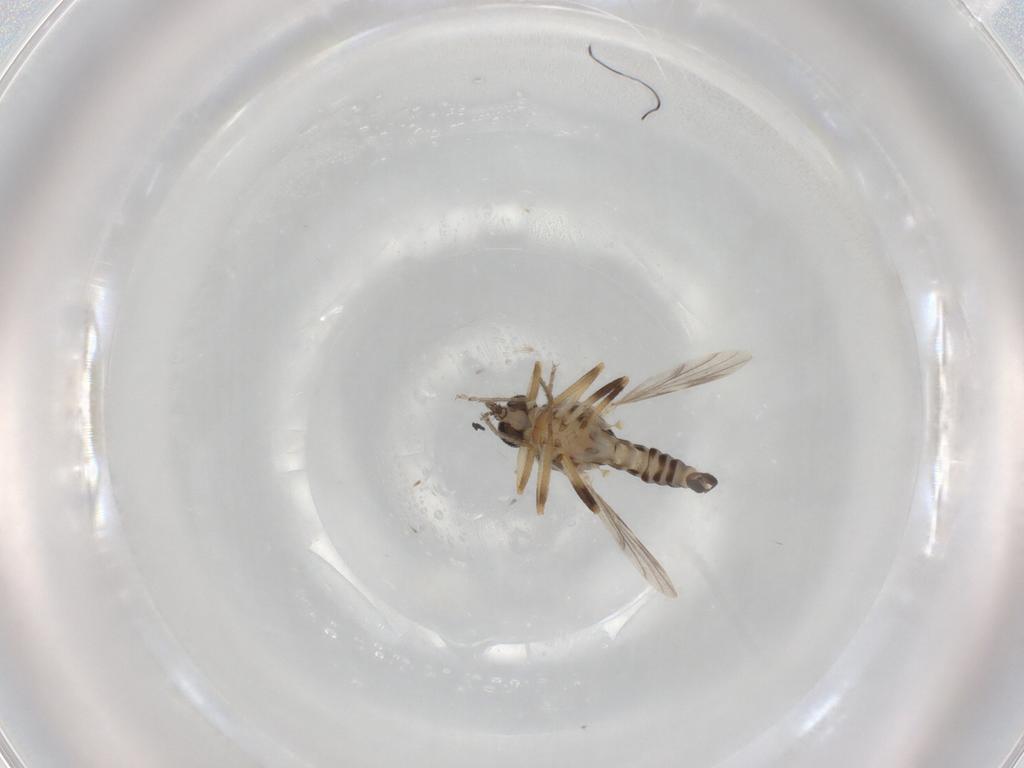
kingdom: Animalia
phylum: Arthropoda
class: Insecta
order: Diptera
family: Ceratopogonidae
